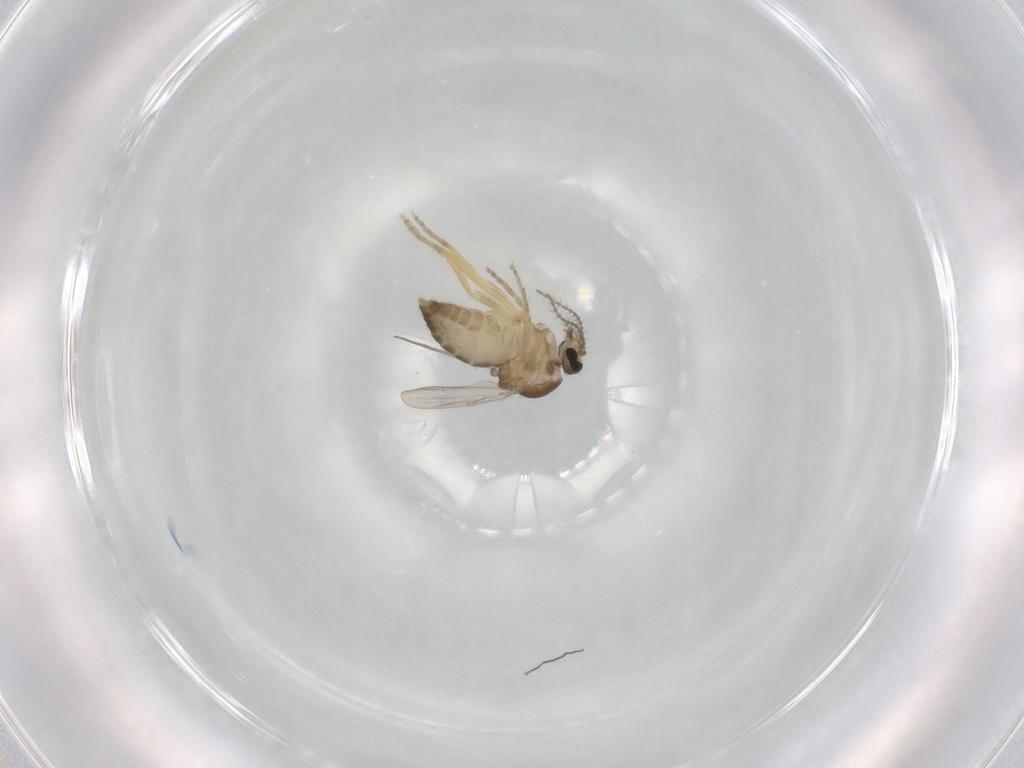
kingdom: Animalia
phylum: Arthropoda
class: Insecta
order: Diptera
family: Ceratopogonidae
